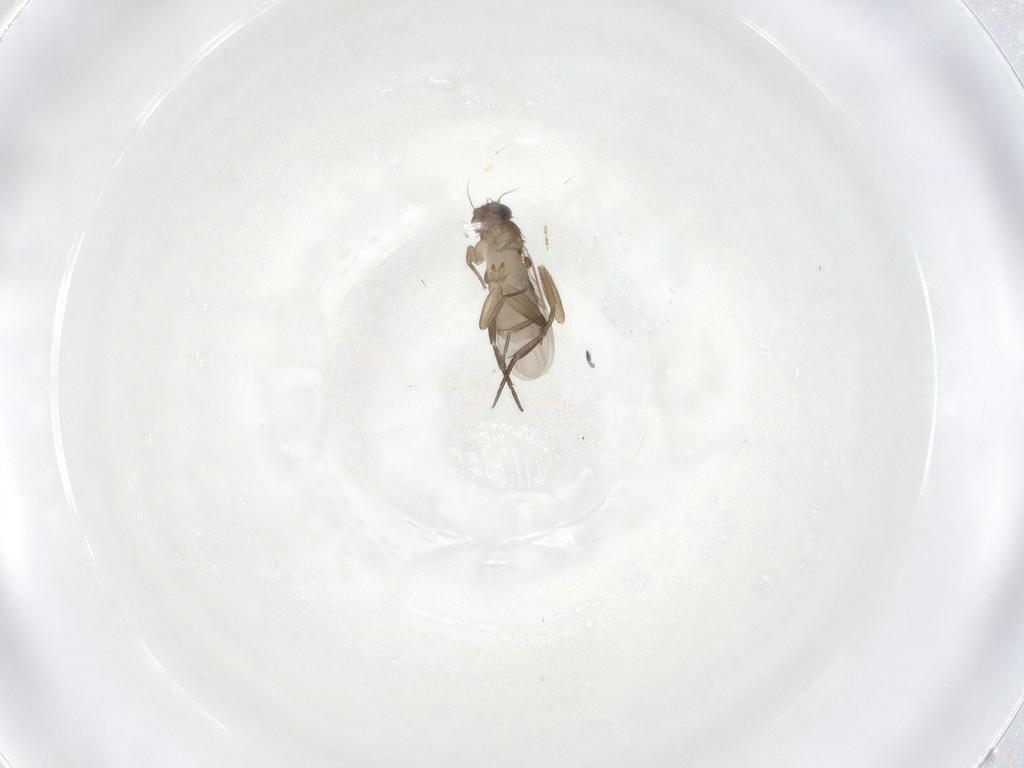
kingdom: Animalia
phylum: Arthropoda
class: Insecta
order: Diptera
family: Phoridae
